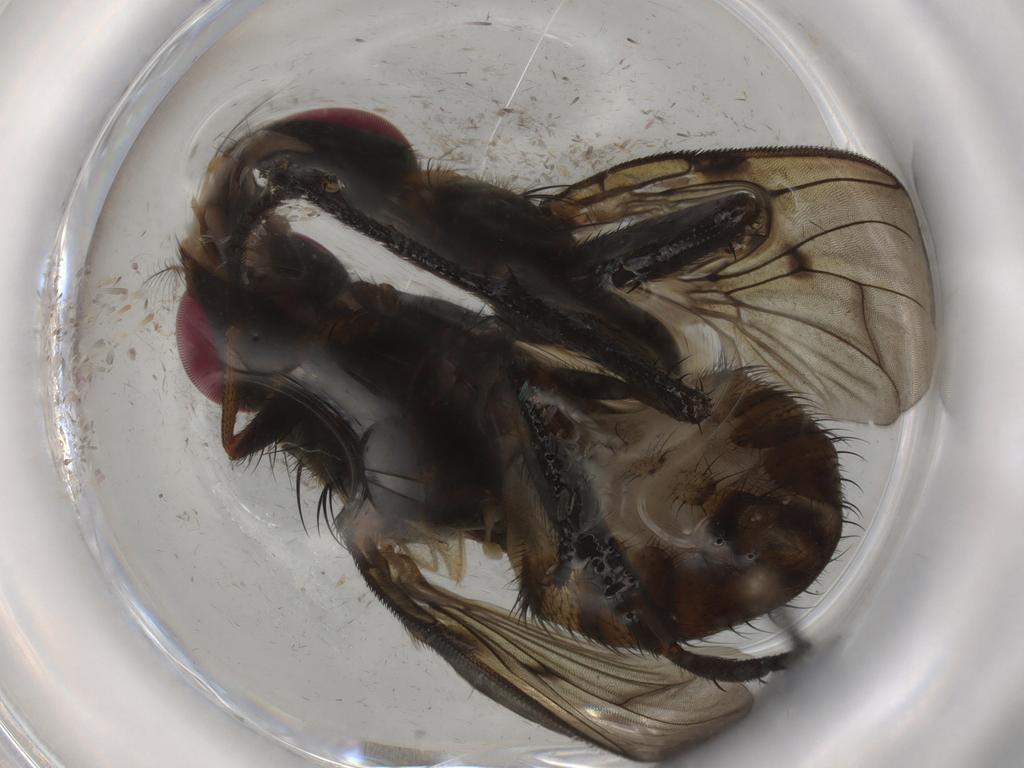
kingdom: Animalia
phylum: Arthropoda
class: Insecta
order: Diptera
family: Muscidae
